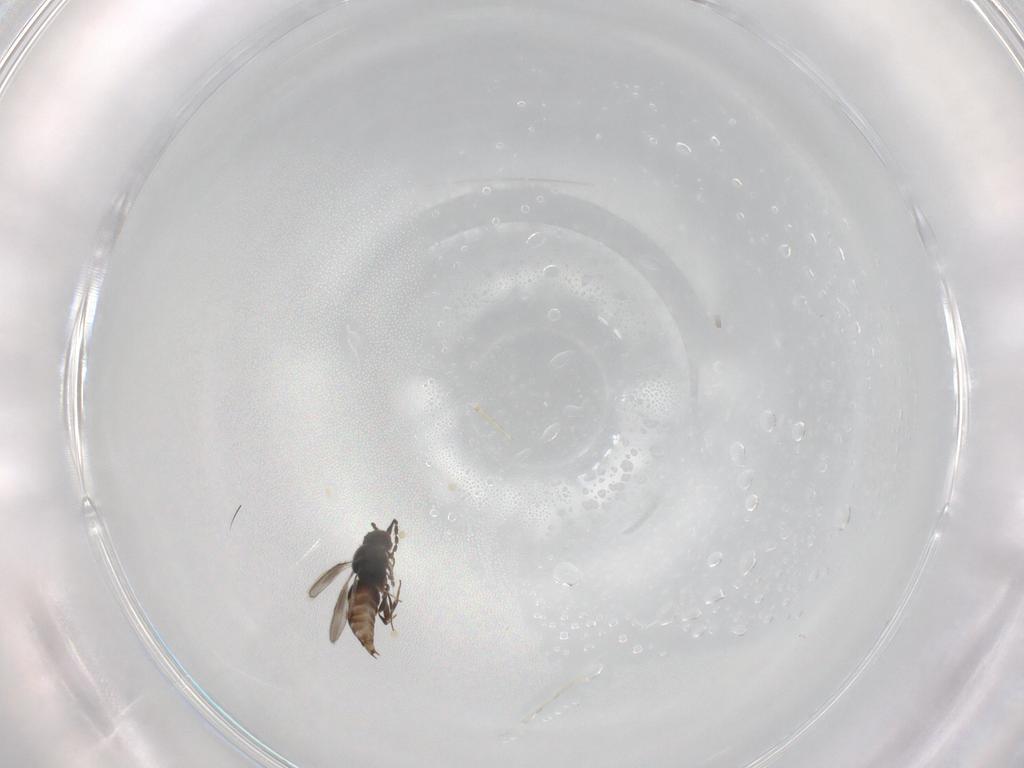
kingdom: Animalia
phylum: Arthropoda
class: Insecta
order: Hymenoptera
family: Ceraphronidae
